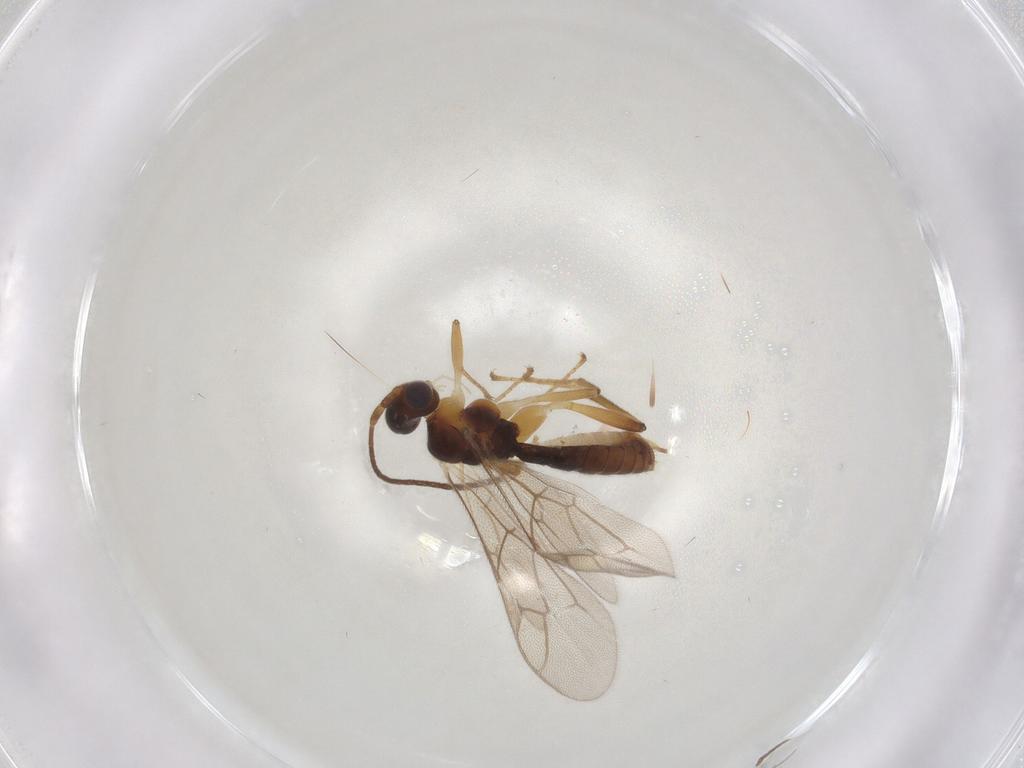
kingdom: Animalia
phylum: Arthropoda
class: Insecta
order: Hymenoptera
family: Ichneumonidae
